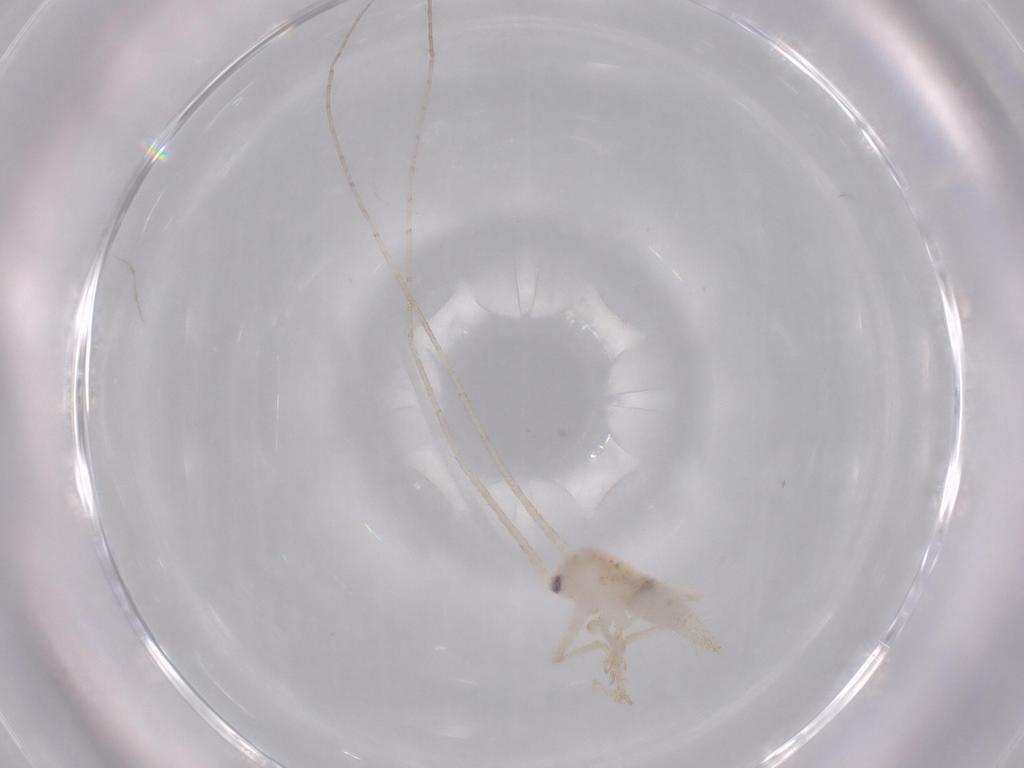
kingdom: Animalia
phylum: Arthropoda
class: Insecta
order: Orthoptera
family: Trigonidiidae
